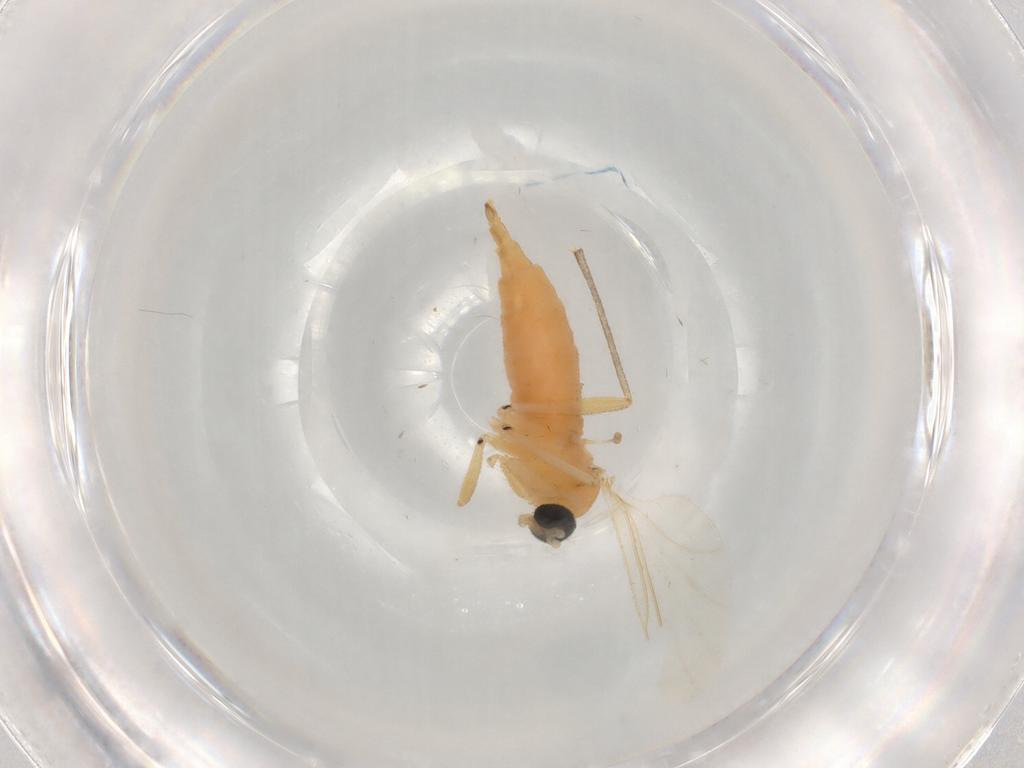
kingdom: Animalia
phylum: Arthropoda
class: Insecta
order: Diptera
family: Sciaridae
